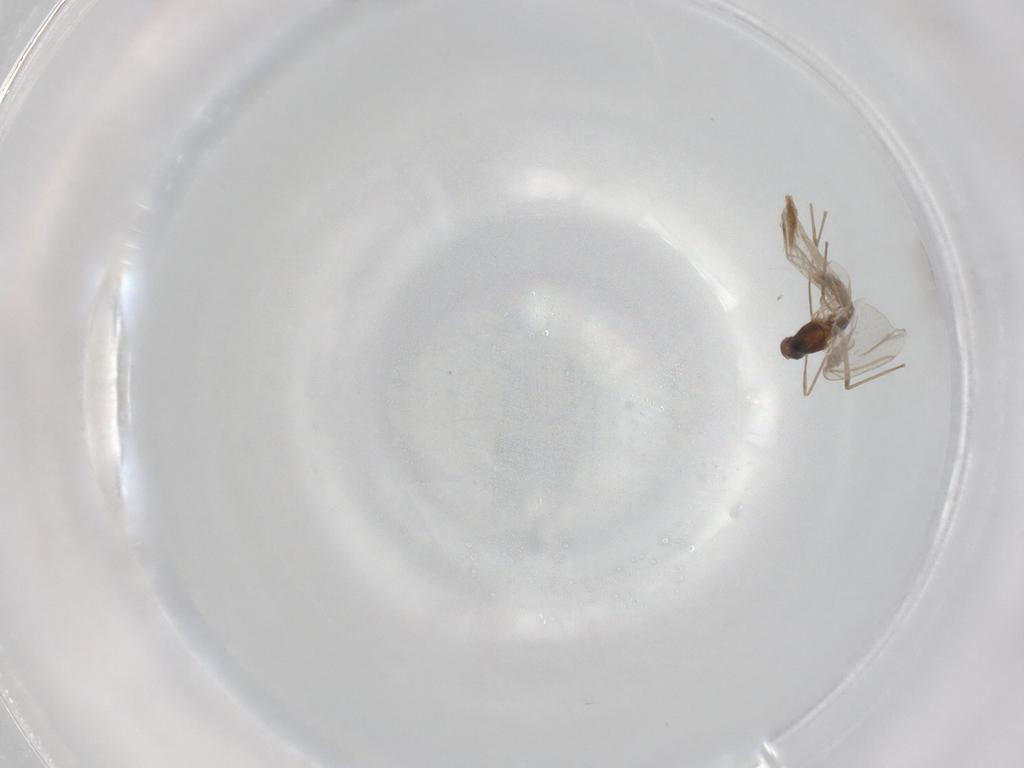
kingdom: Animalia
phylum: Arthropoda
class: Insecta
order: Diptera
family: Cecidomyiidae
